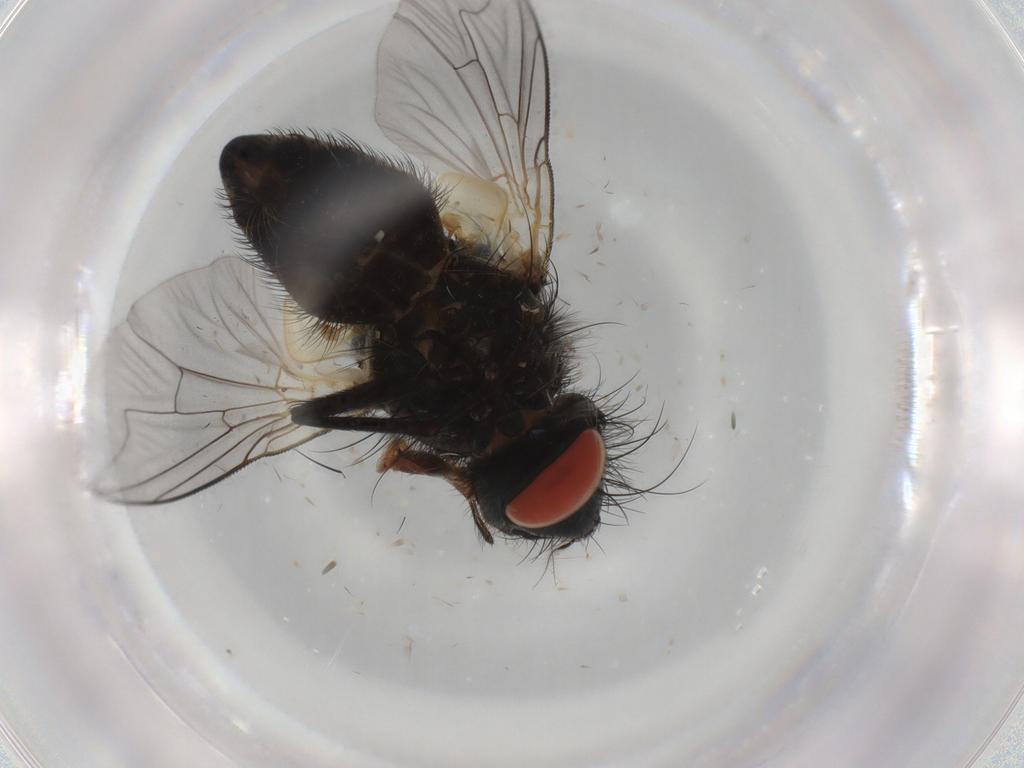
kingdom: Animalia
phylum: Arthropoda
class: Insecta
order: Diptera
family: Sarcophagidae
